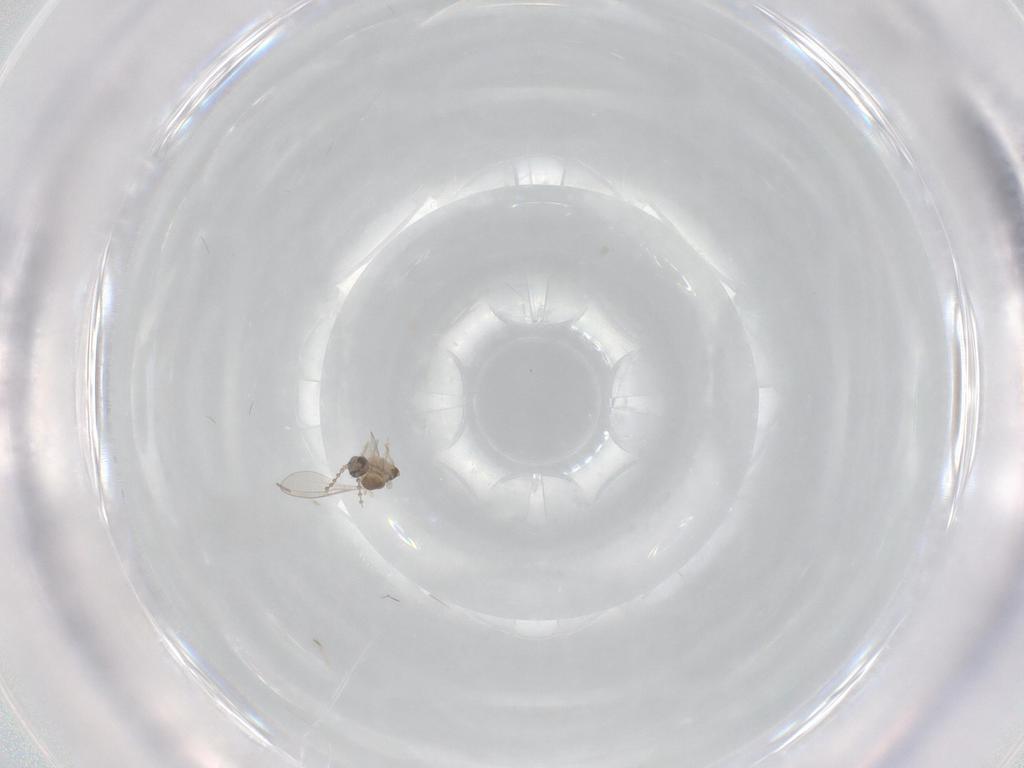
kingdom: Animalia
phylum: Arthropoda
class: Insecta
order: Diptera
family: Cecidomyiidae
